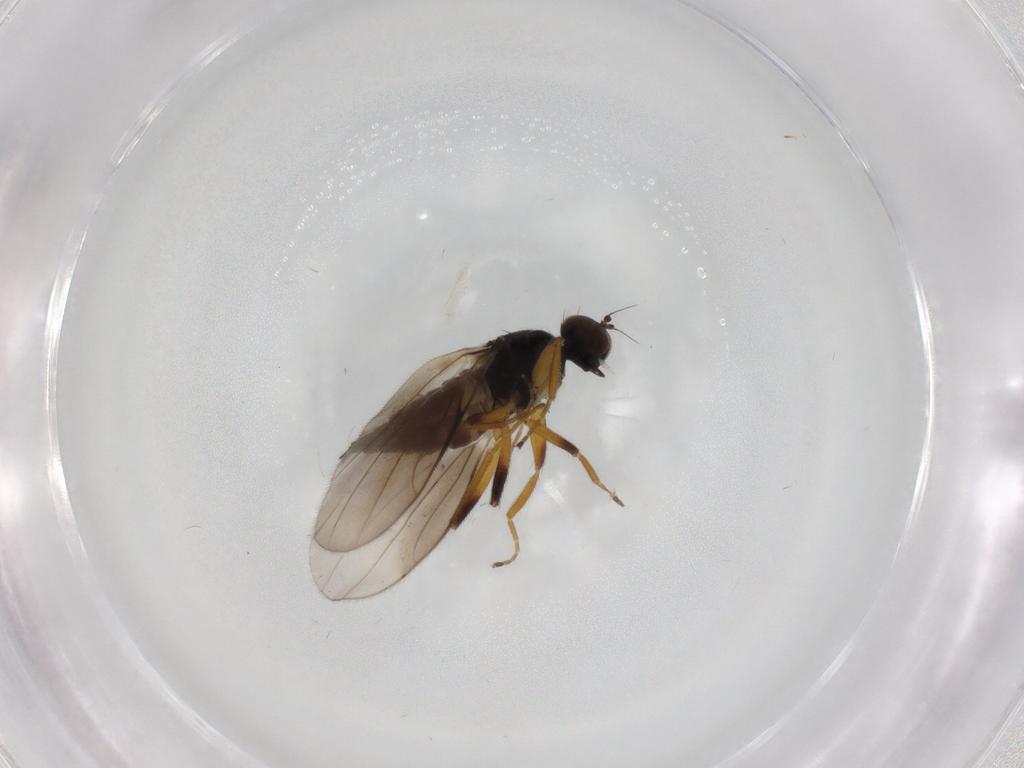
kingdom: Animalia
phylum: Arthropoda
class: Insecta
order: Diptera
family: Hybotidae
